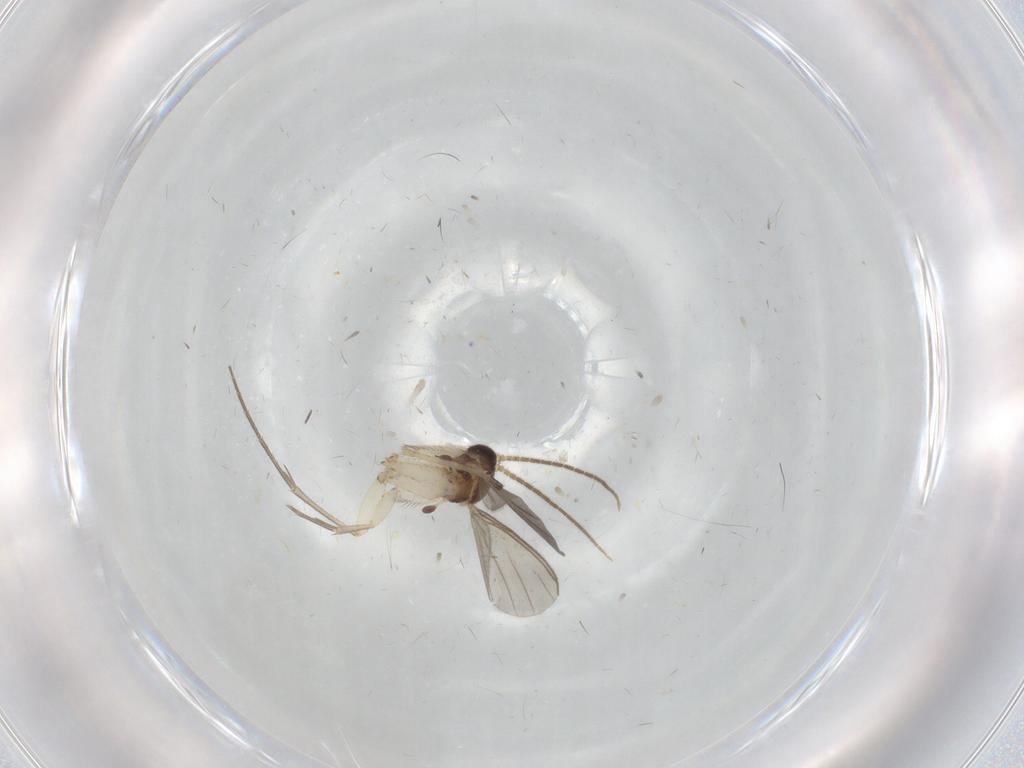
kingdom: Animalia
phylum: Arthropoda
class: Insecta
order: Diptera
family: Mycetophilidae
